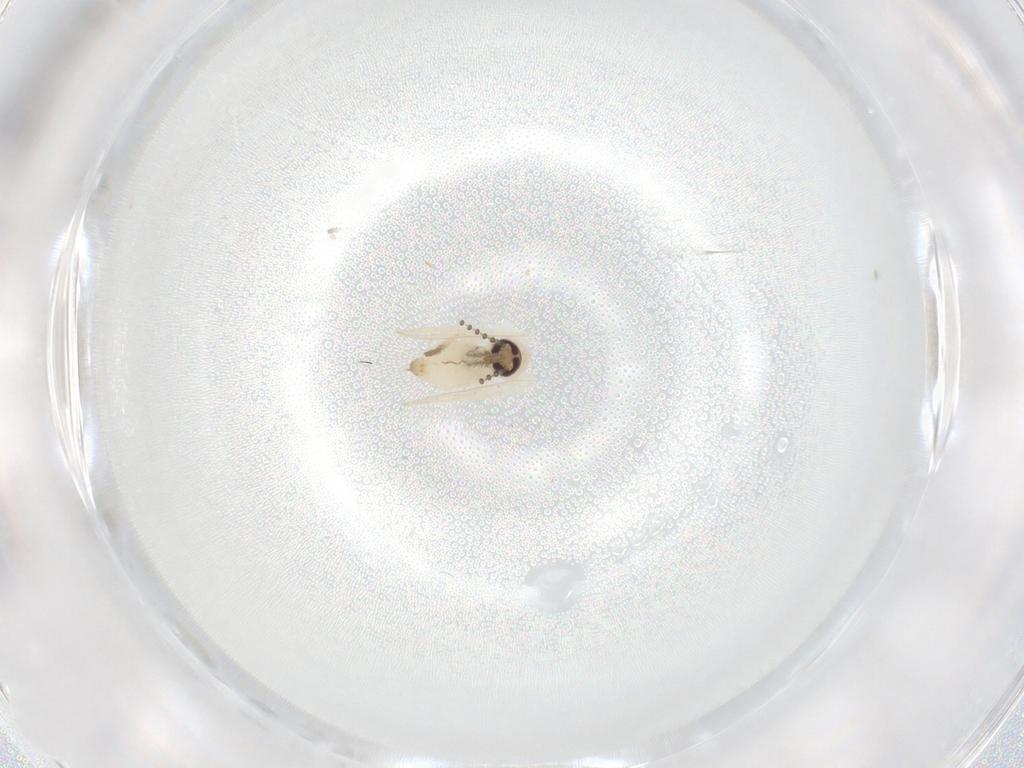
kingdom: Animalia
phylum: Arthropoda
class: Insecta
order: Diptera
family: Psychodidae
